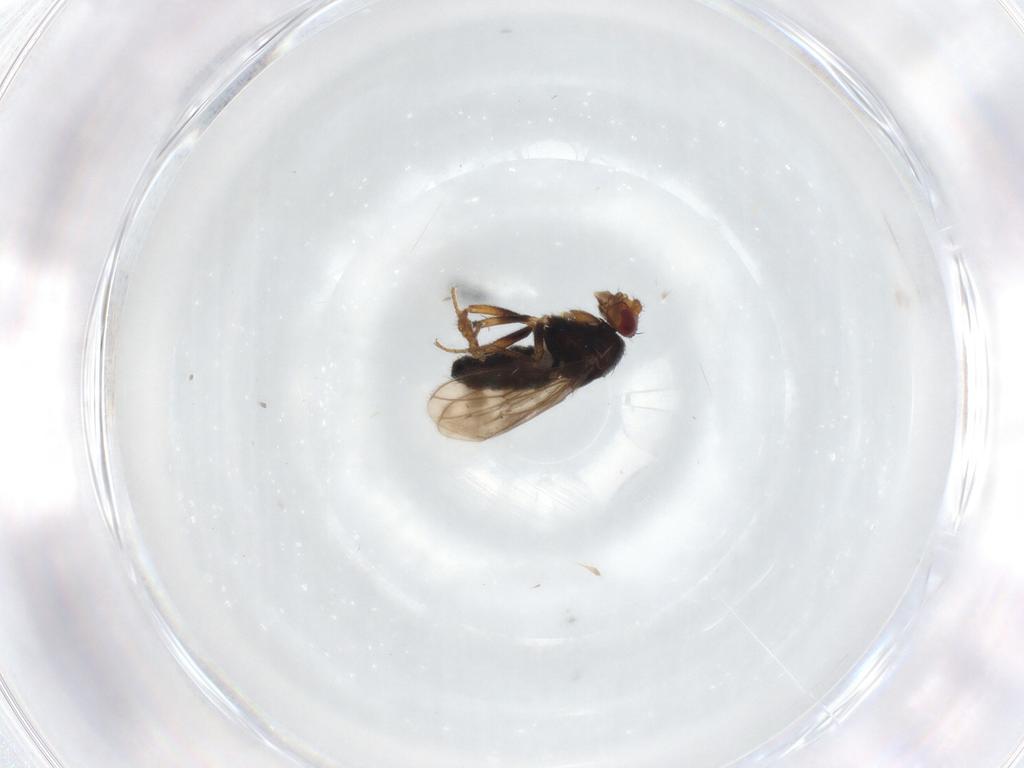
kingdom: Animalia
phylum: Arthropoda
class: Insecta
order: Diptera
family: Sphaeroceridae
